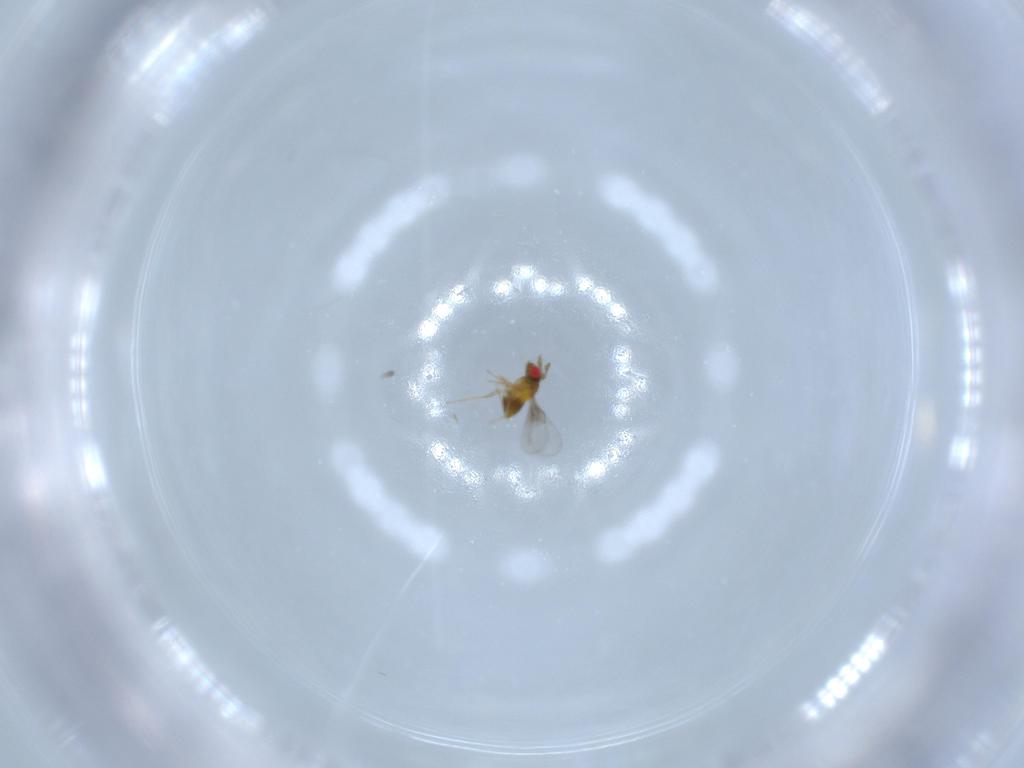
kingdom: Animalia
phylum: Arthropoda
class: Insecta
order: Hymenoptera
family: Trichogrammatidae
